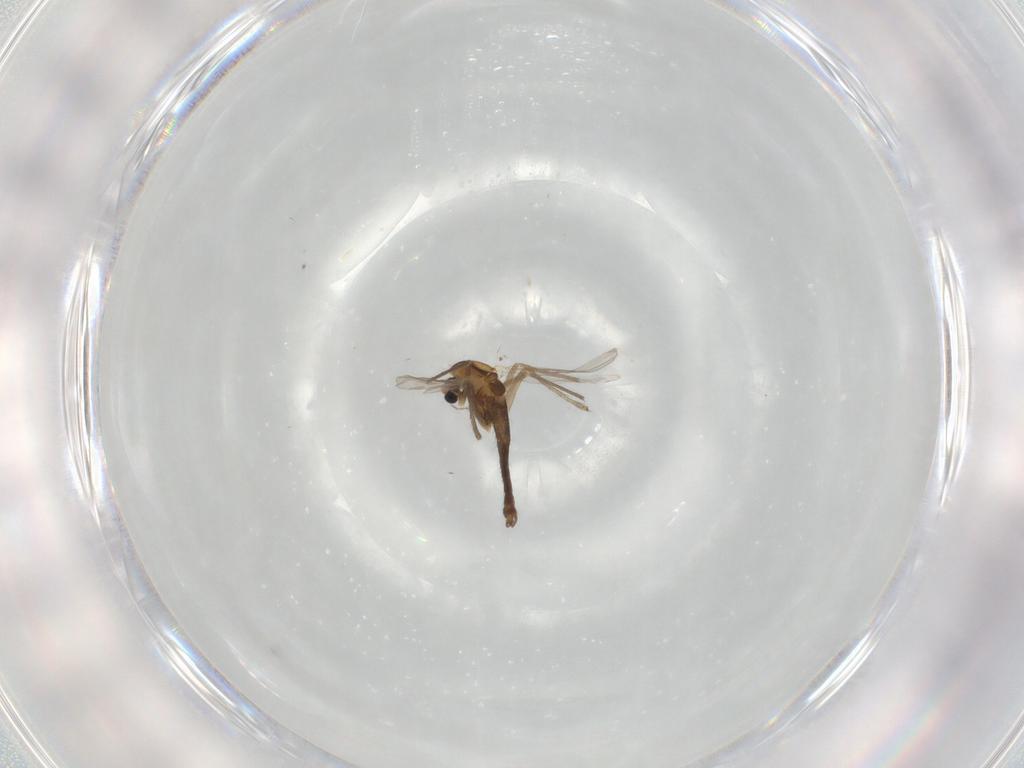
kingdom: Animalia
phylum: Arthropoda
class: Insecta
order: Diptera
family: Chironomidae
